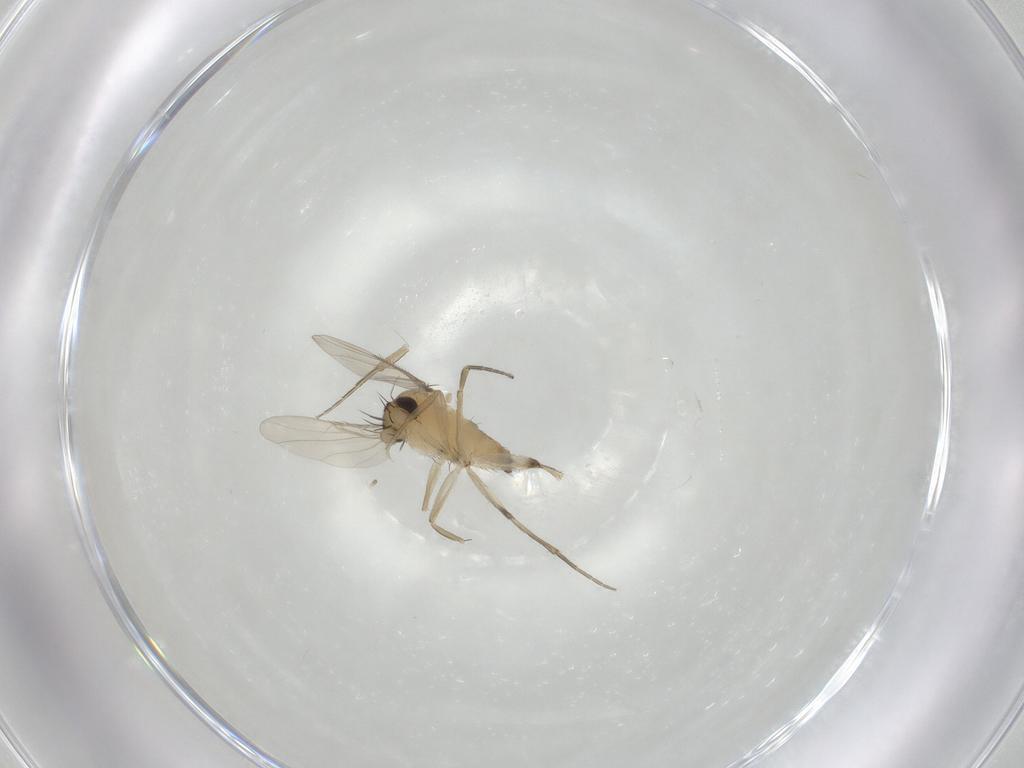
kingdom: Animalia
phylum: Arthropoda
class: Insecta
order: Diptera
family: Phoridae
